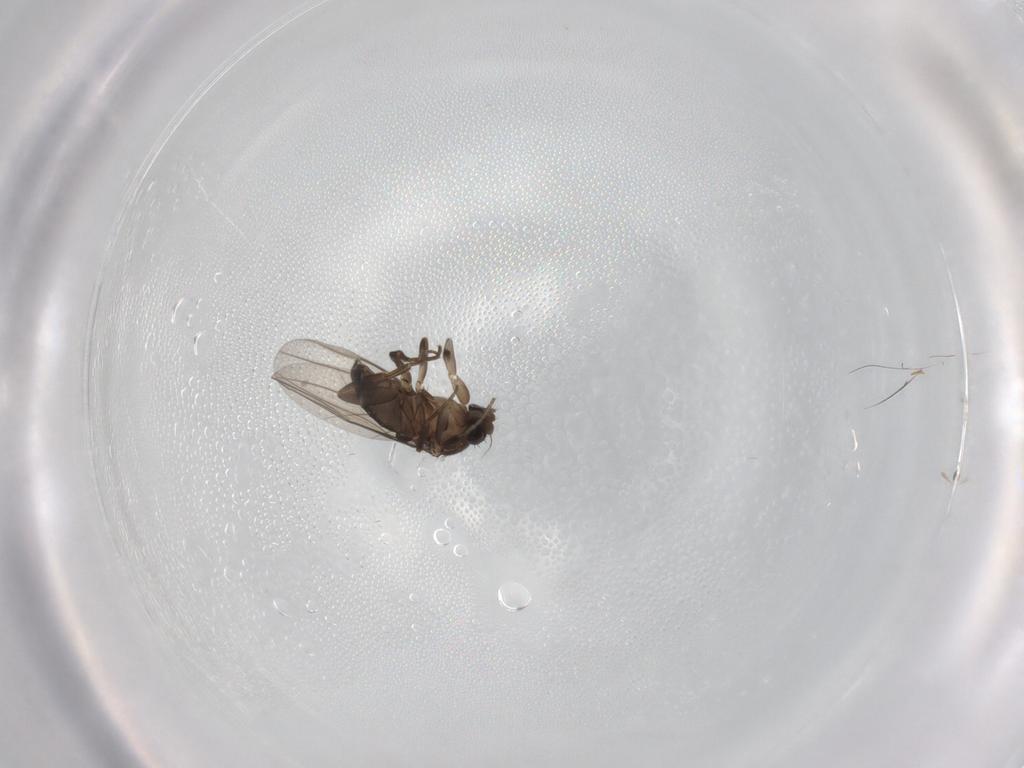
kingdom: Animalia
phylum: Arthropoda
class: Insecta
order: Diptera
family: Phoridae
